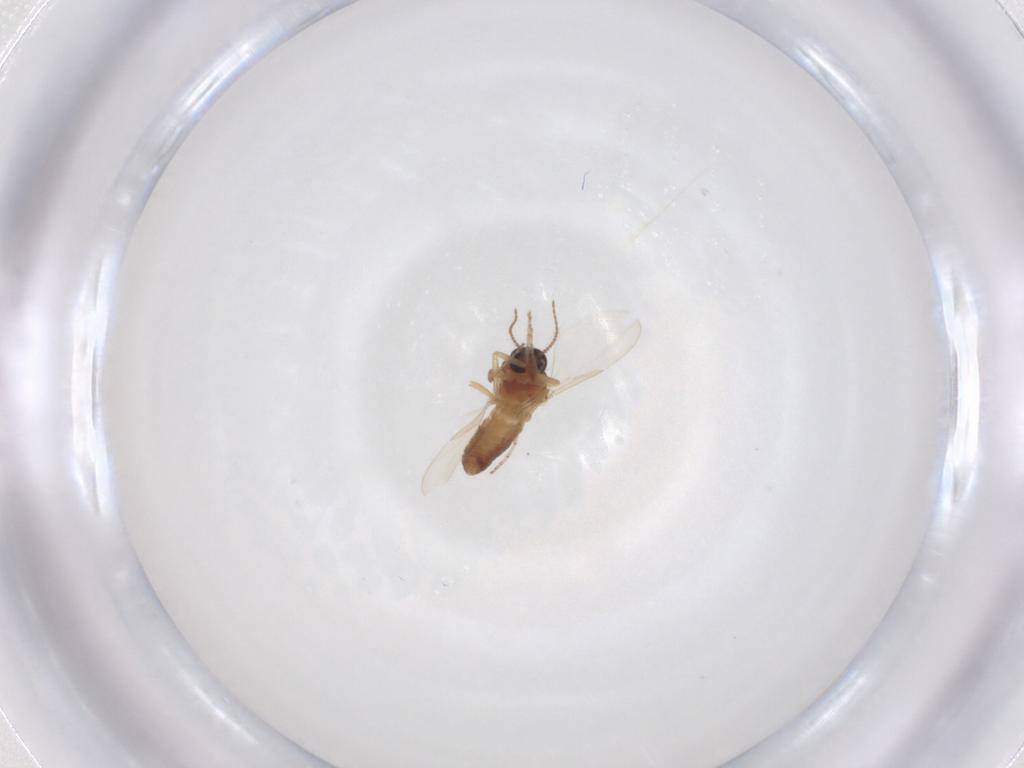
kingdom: Animalia
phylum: Arthropoda
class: Insecta
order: Diptera
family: Ceratopogonidae
